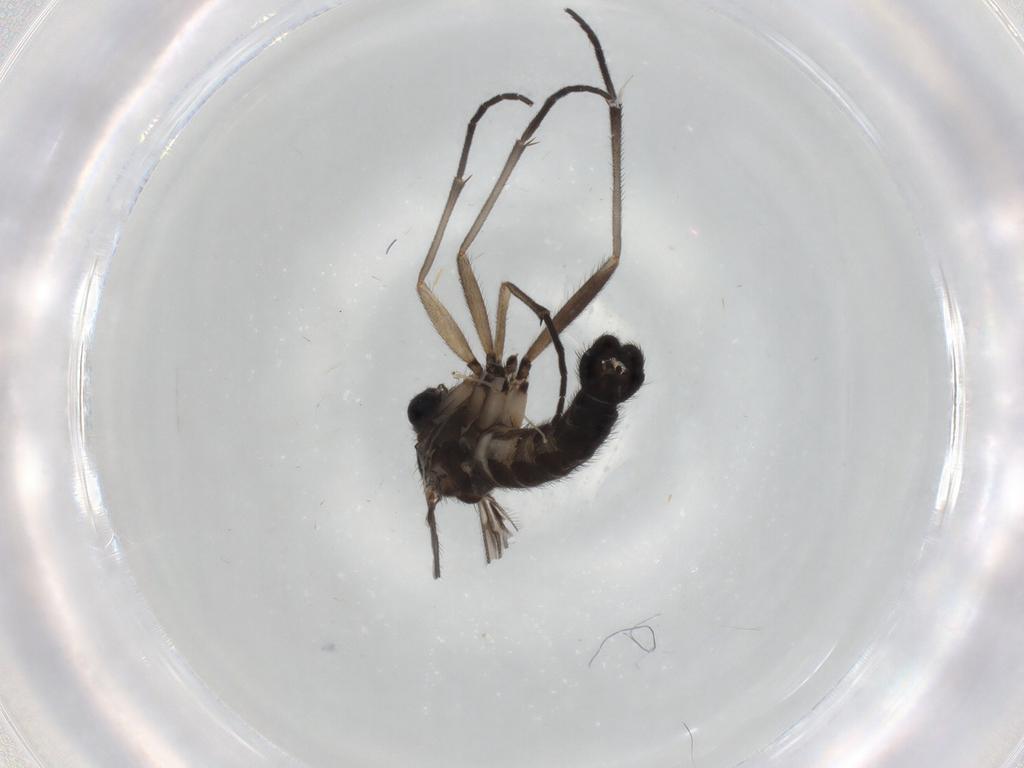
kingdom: Animalia
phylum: Arthropoda
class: Insecta
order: Diptera
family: Sciaridae
